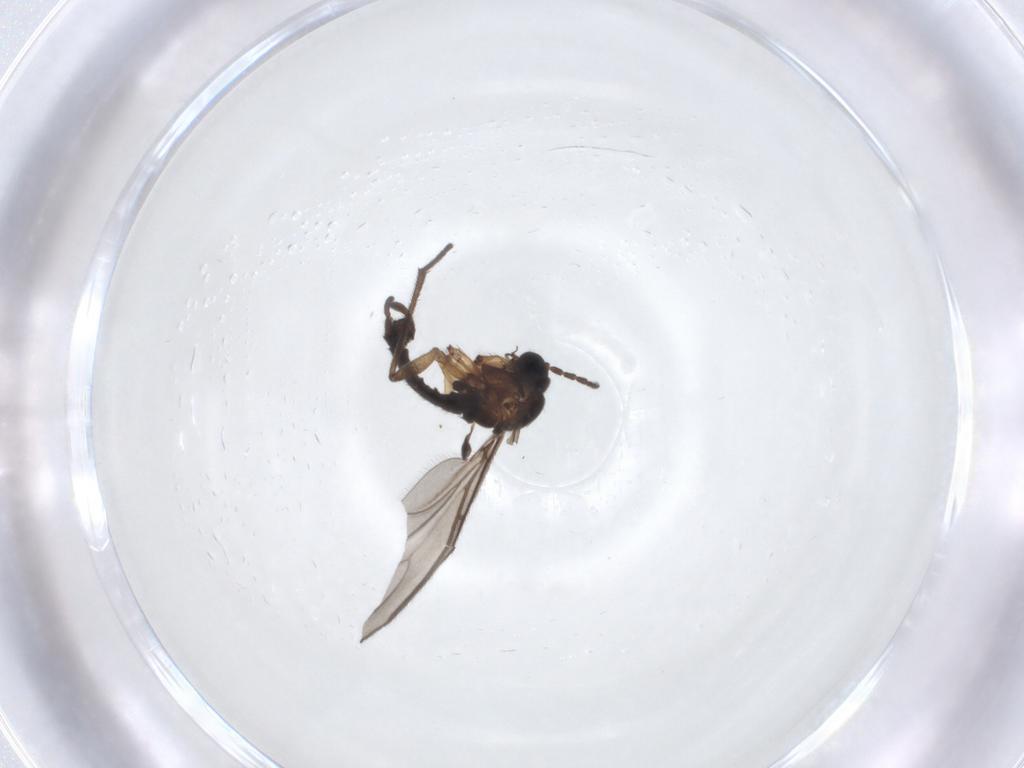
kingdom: Animalia
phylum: Arthropoda
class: Insecta
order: Diptera
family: Sciaridae
